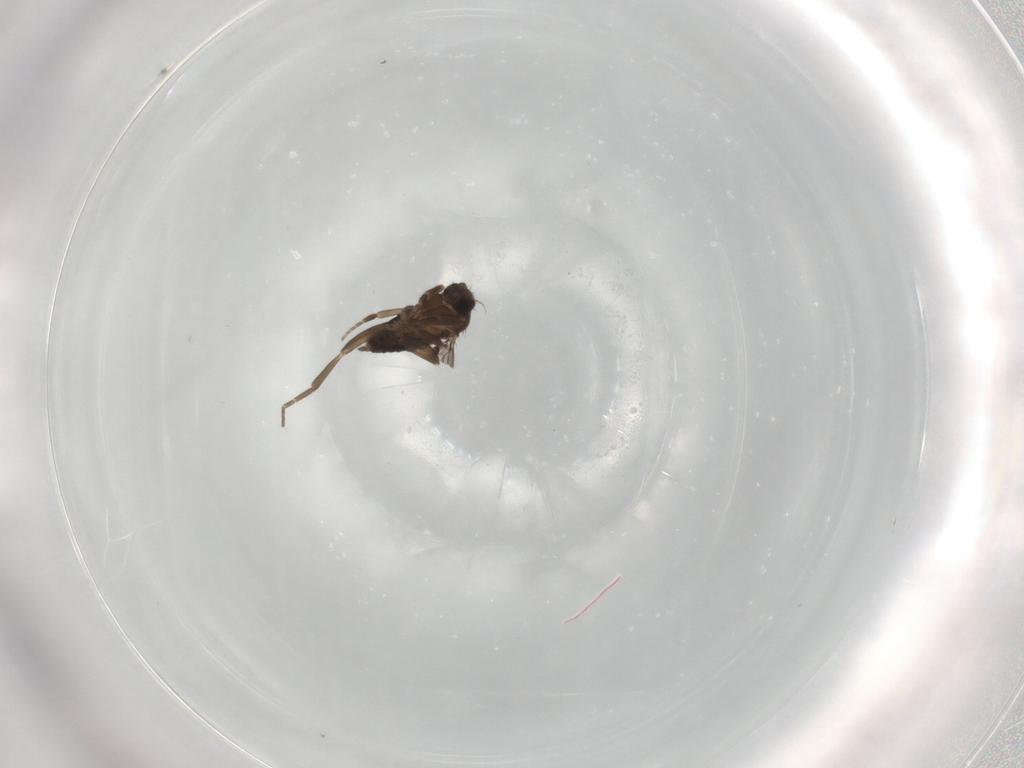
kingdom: Animalia
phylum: Arthropoda
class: Insecta
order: Diptera
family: Phoridae
